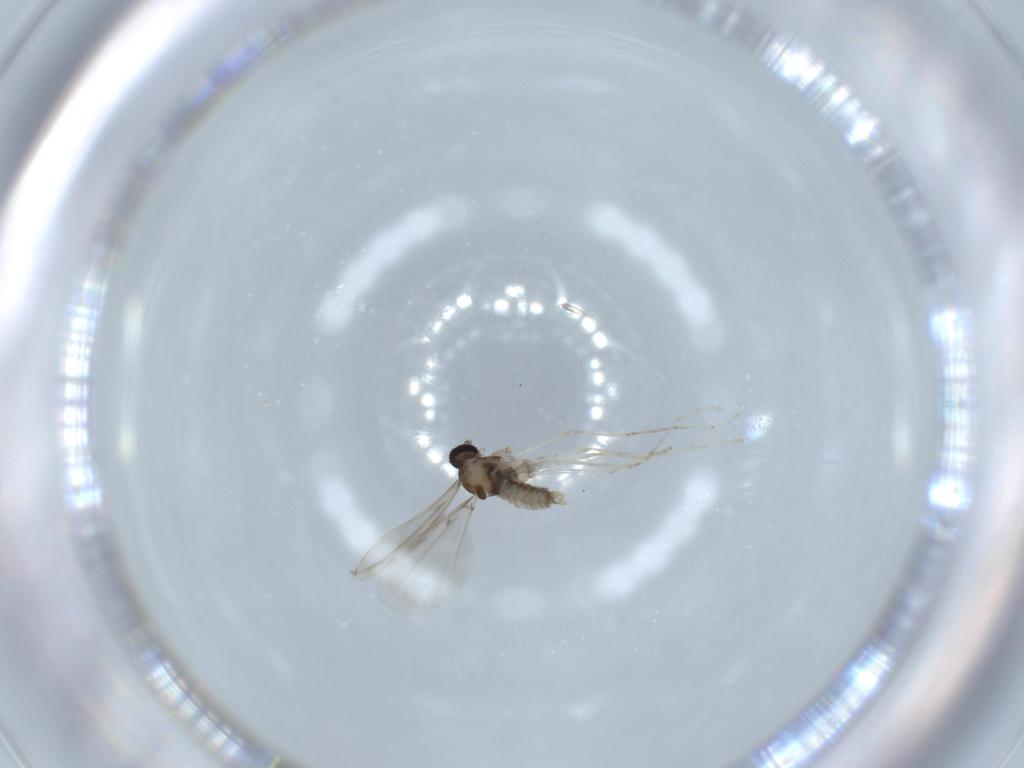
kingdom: Animalia
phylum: Arthropoda
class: Insecta
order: Diptera
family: Cecidomyiidae
